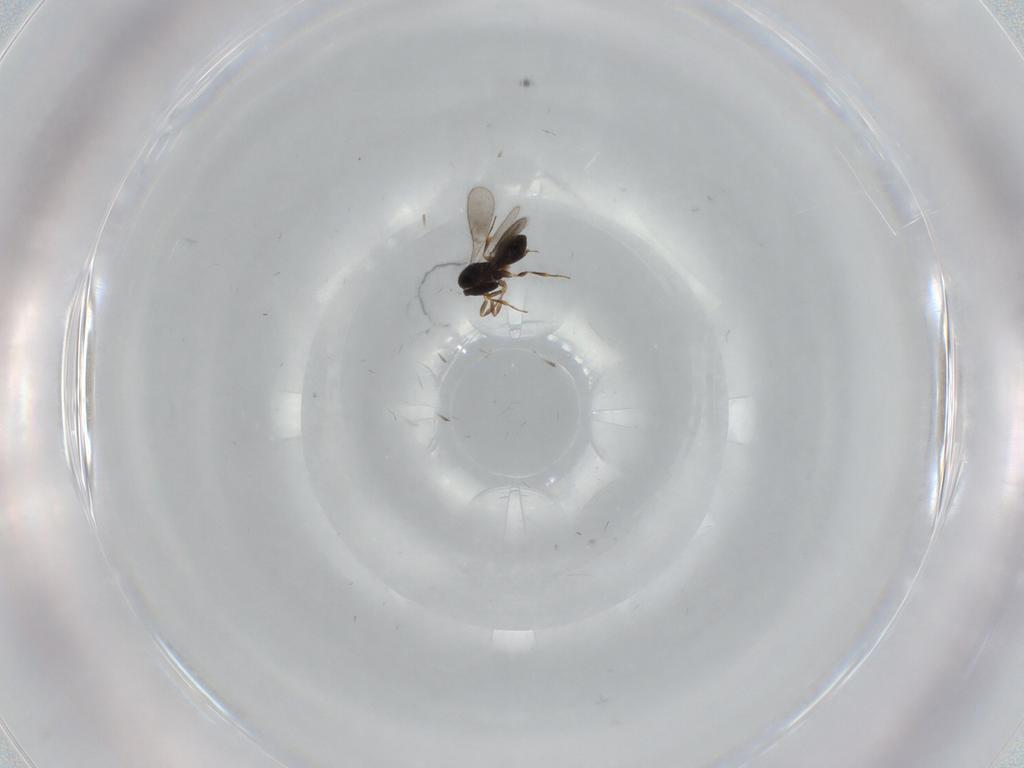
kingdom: Animalia
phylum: Arthropoda
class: Insecta
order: Hymenoptera
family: Scelionidae
